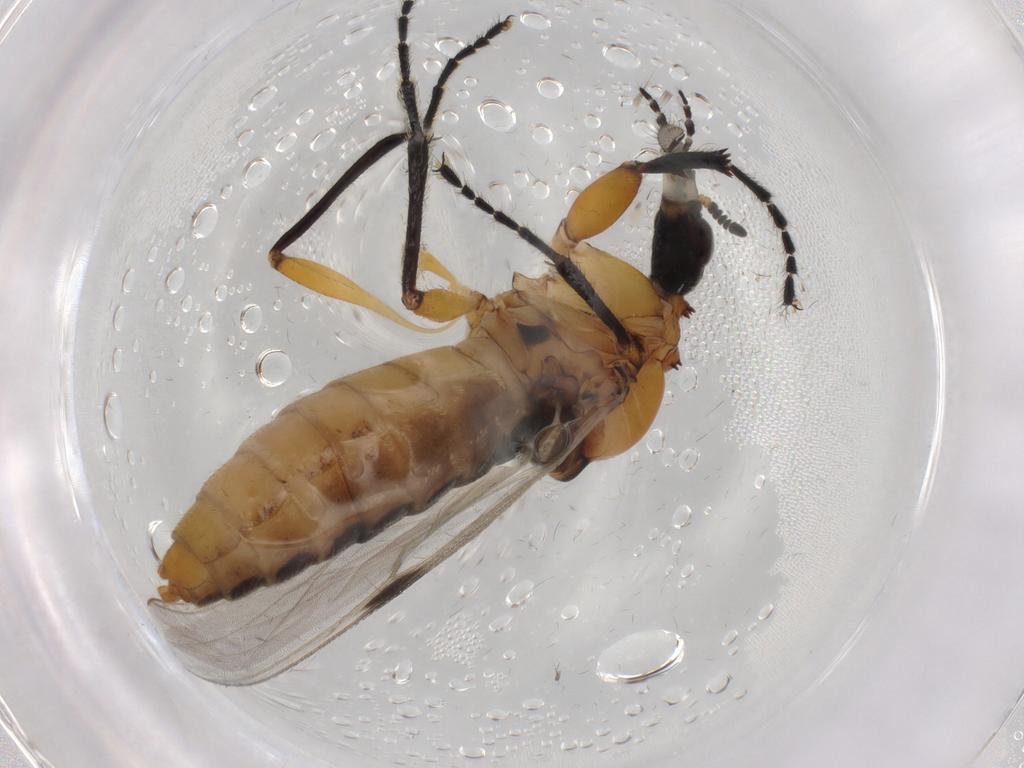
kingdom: Animalia
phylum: Arthropoda
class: Insecta
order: Diptera
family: Bibionidae
